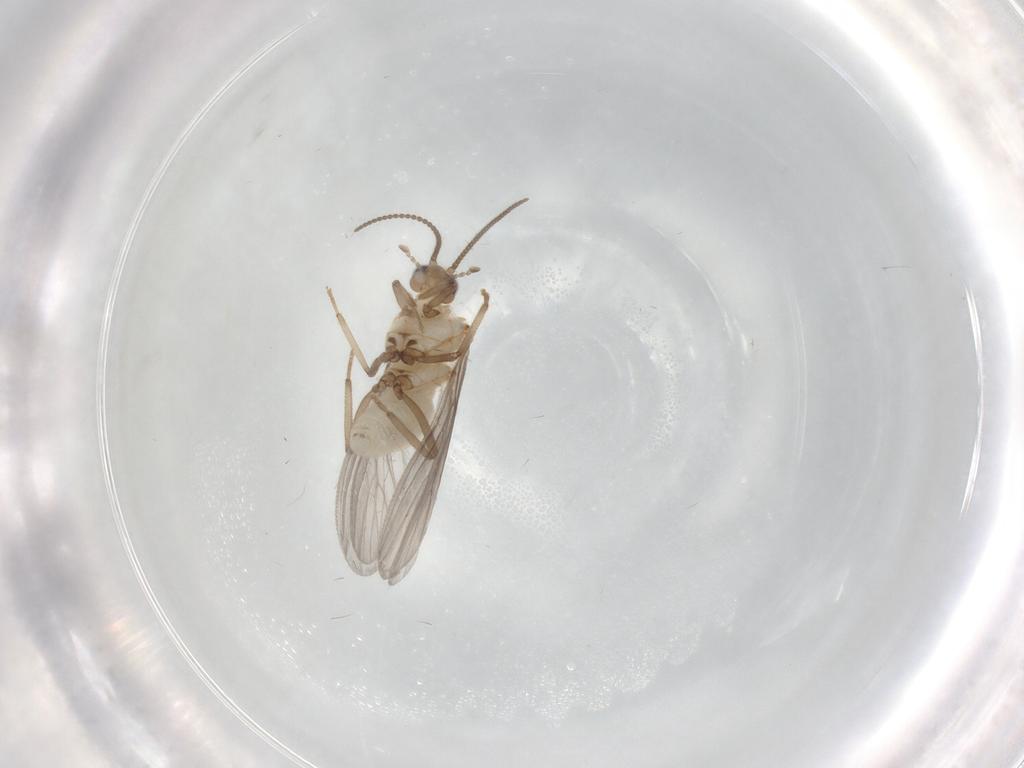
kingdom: Animalia
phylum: Arthropoda
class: Insecta
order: Neuroptera
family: Coniopterygidae
